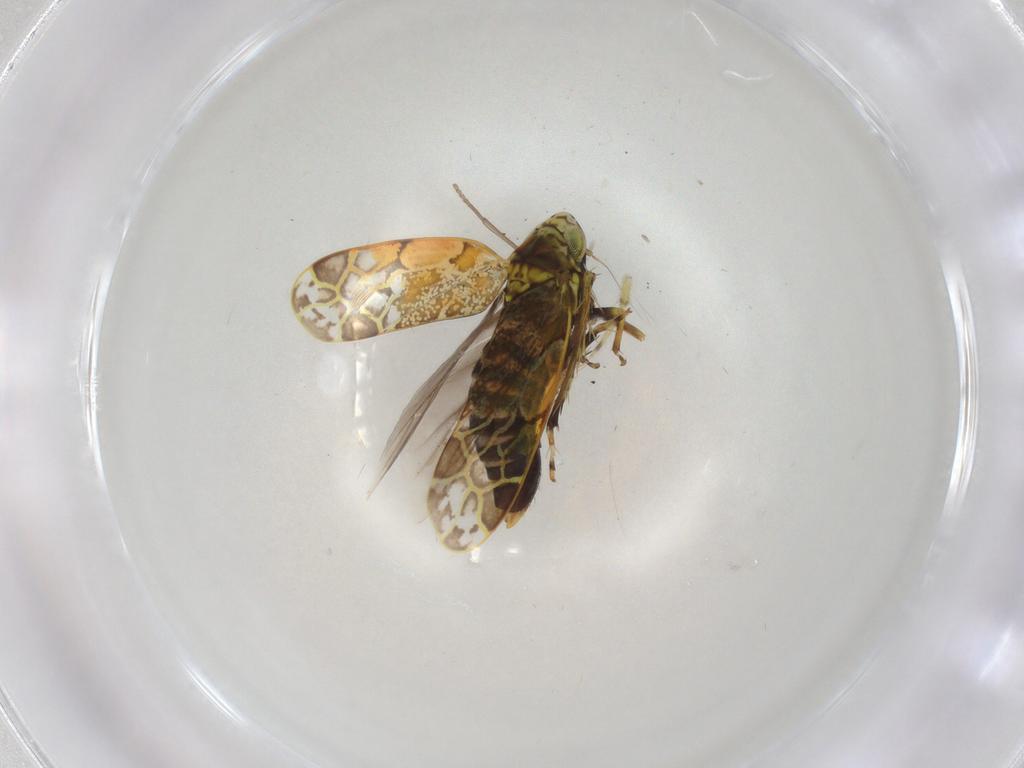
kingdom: Animalia
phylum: Arthropoda
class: Insecta
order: Hemiptera
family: Cicadellidae
